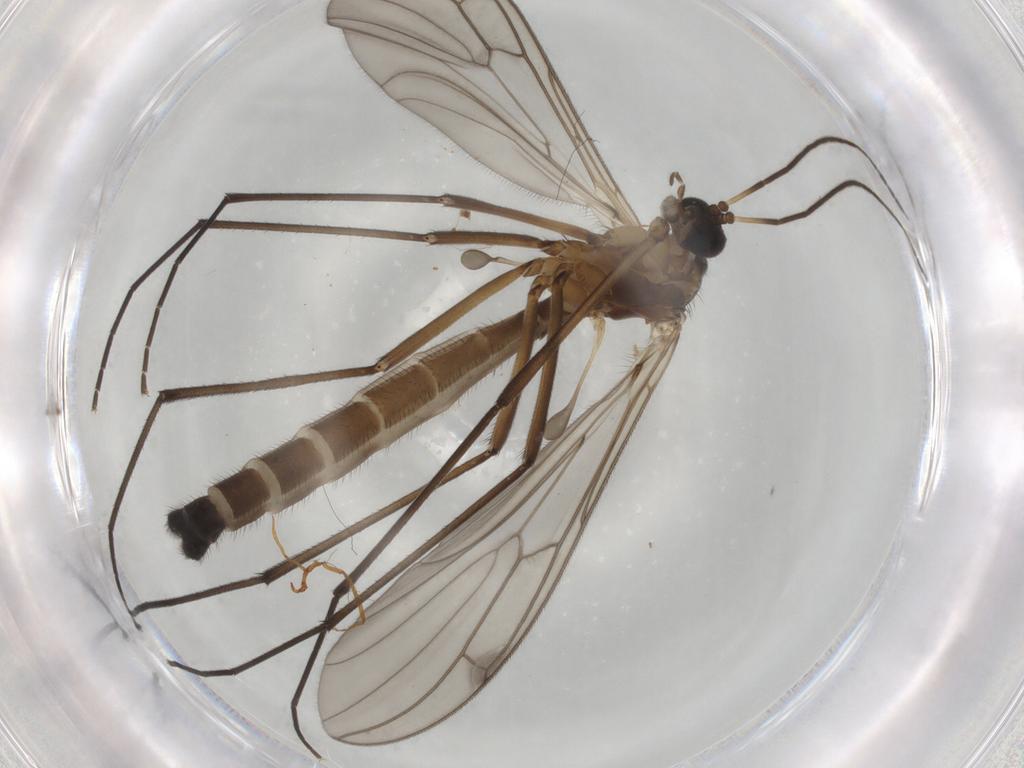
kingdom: Animalia
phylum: Arthropoda
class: Insecta
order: Diptera
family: Bolitophilidae
